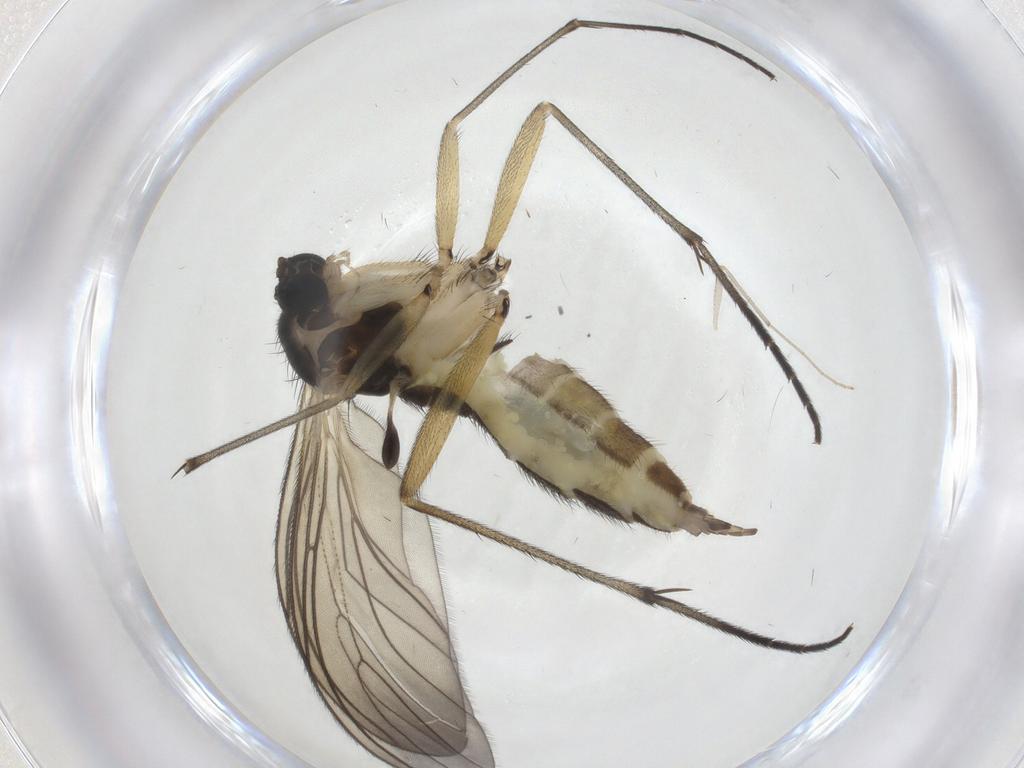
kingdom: Animalia
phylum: Arthropoda
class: Insecta
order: Diptera
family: Sciaridae
